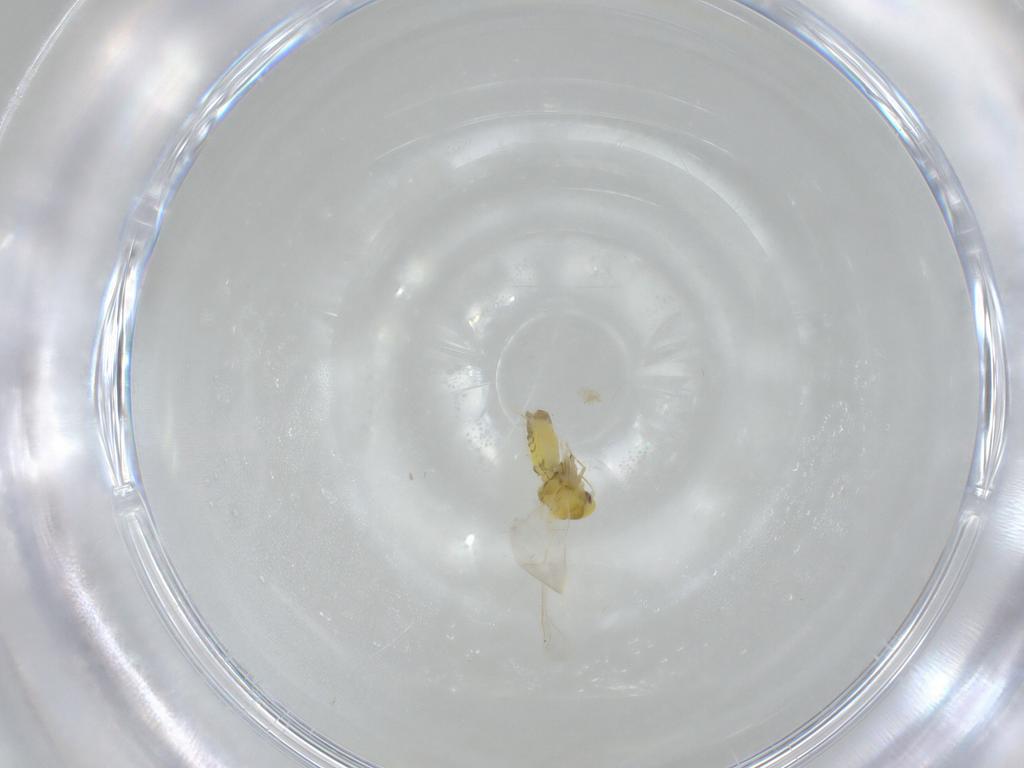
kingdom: Animalia
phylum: Arthropoda
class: Insecta
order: Hemiptera
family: Aleyrodidae
